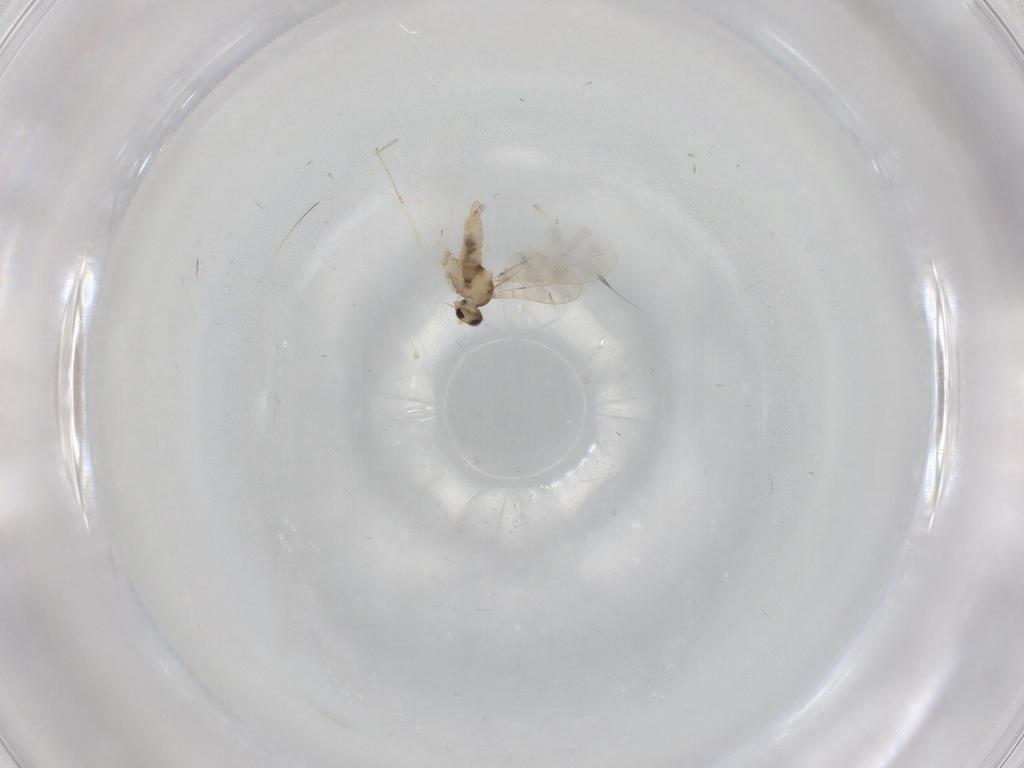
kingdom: Animalia
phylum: Arthropoda
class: Insecta
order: Diptera
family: Cecidomyiidae
